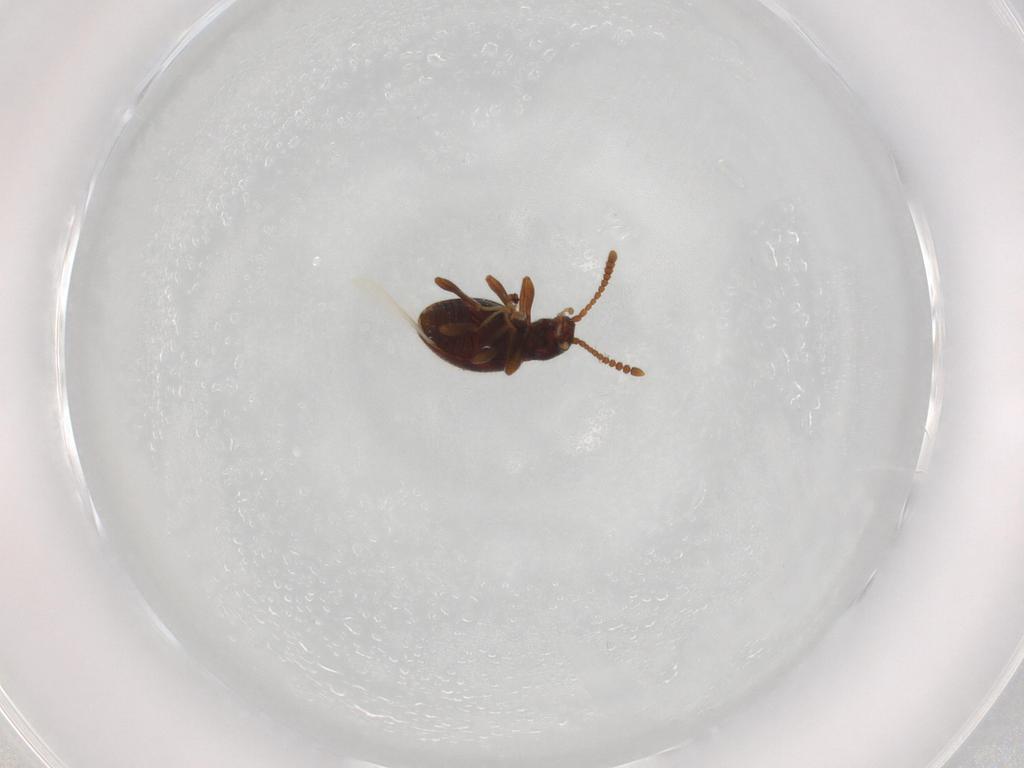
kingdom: Animalia
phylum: Arthropoda
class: Insecta
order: Coleoptera
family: Staphylinidae
